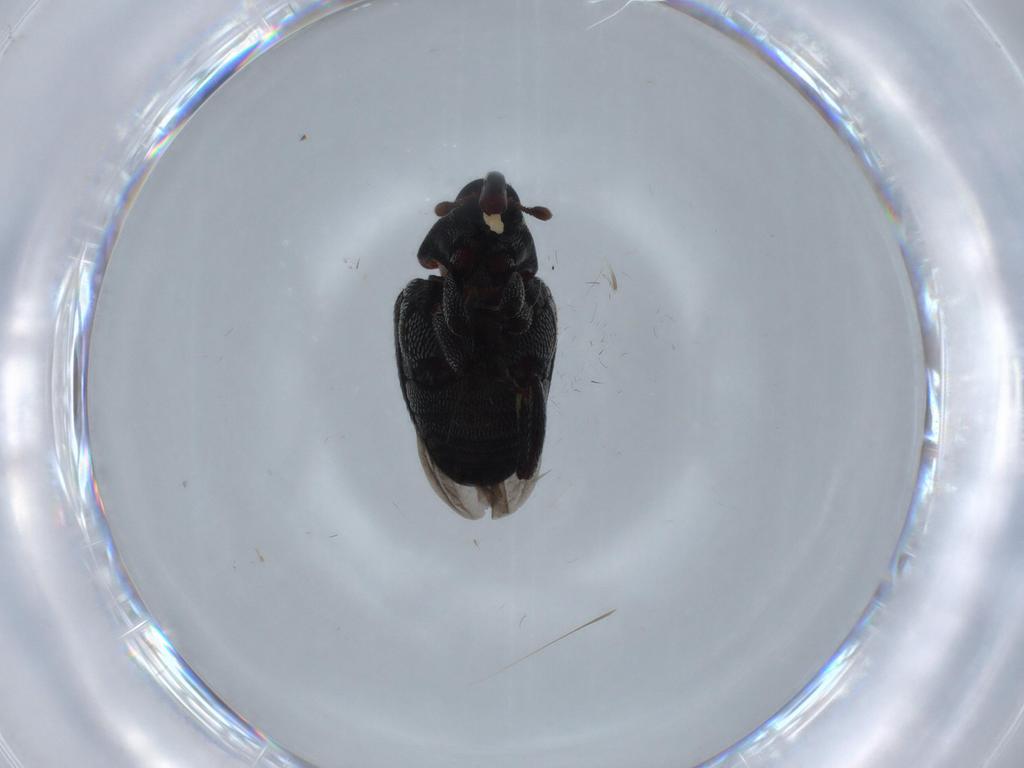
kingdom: Animalia
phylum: Arthropoda
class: Insecta
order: Coleoptera
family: Curculionidae
